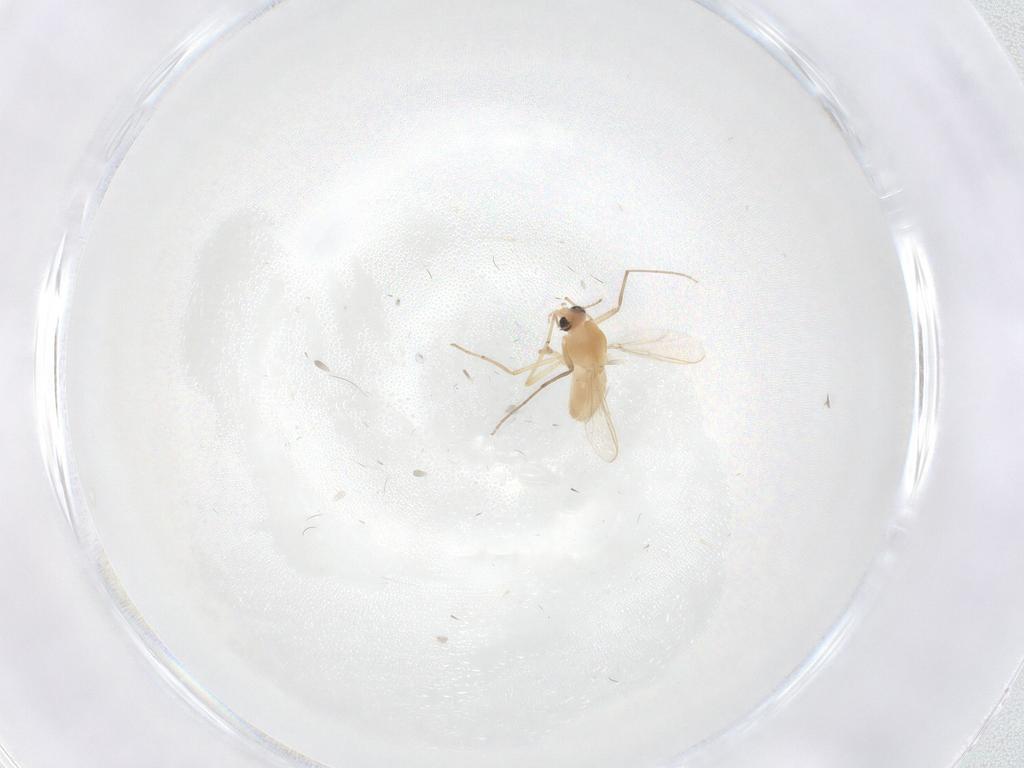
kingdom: Animalia
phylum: Arthropoda
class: Insecta
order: Diptera
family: Chironomidae
